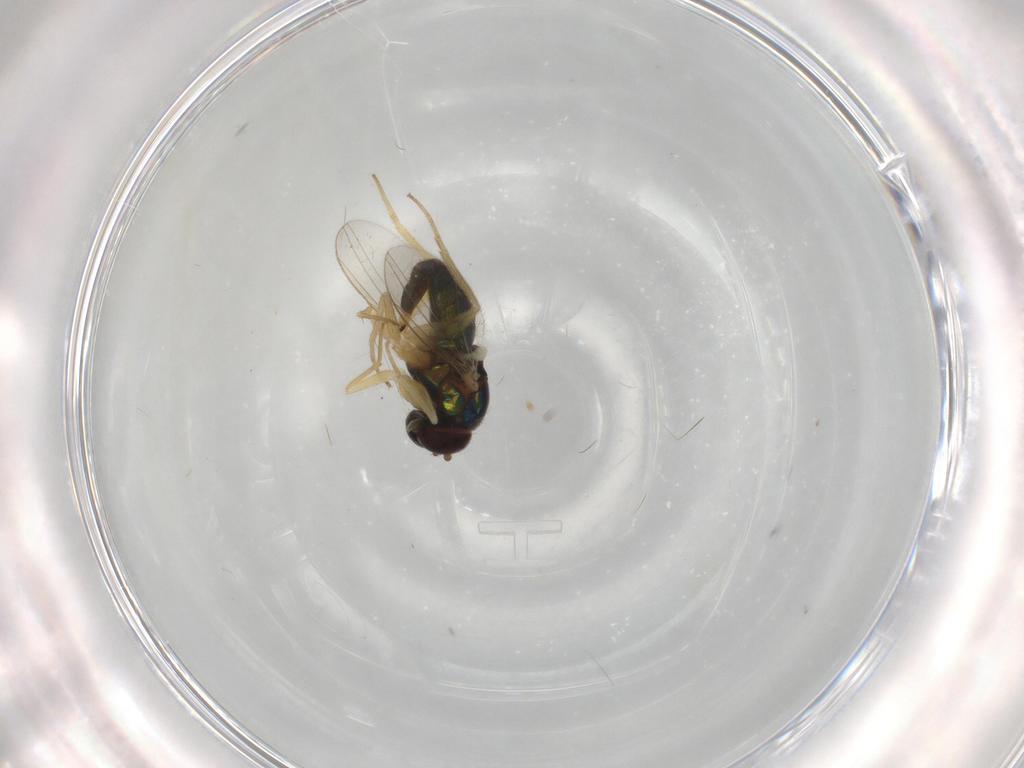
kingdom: Animalia
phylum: Arthropoda
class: Insecta
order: Diptera
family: Dolichopodidae
